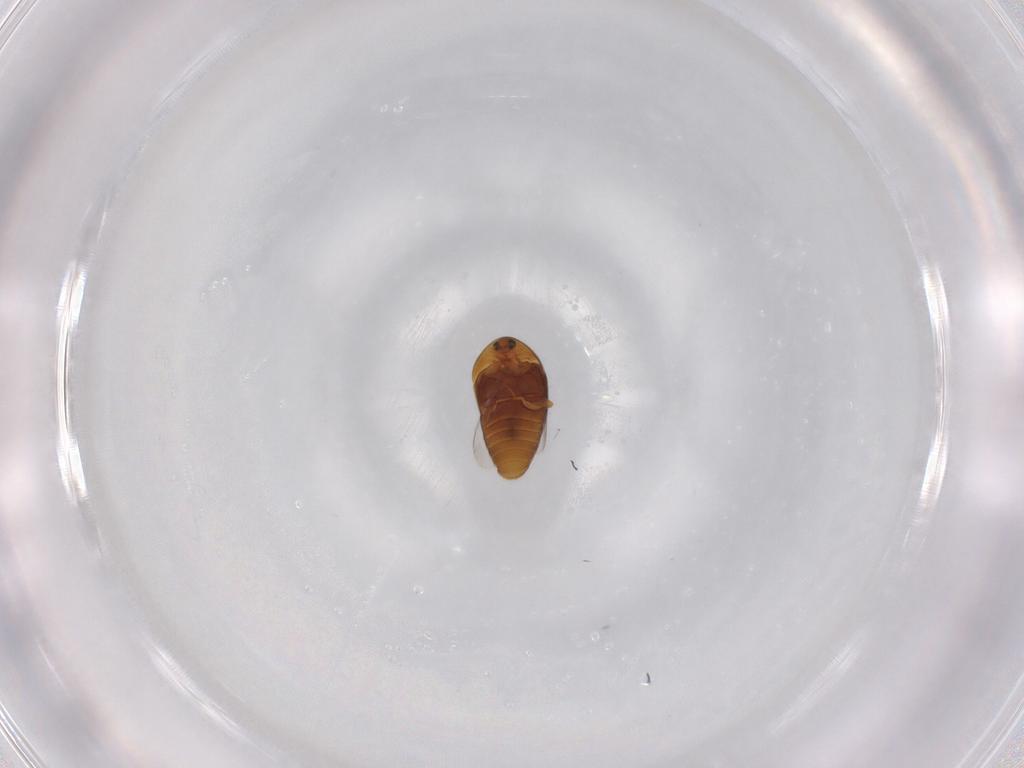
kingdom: Animalia
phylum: Arthropoda
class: Insecta
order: Coleoptera
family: Corylophidae
